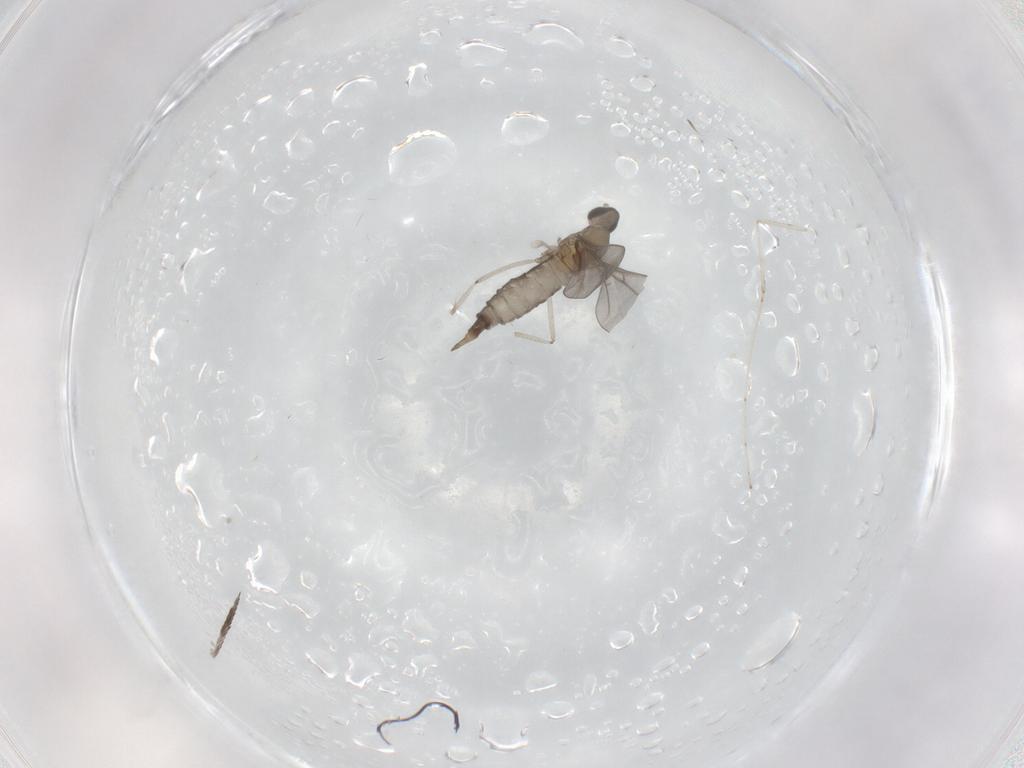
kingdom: Animalia
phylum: Arthropoda
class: Insecta
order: Diptera
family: Cecidomyiidae
